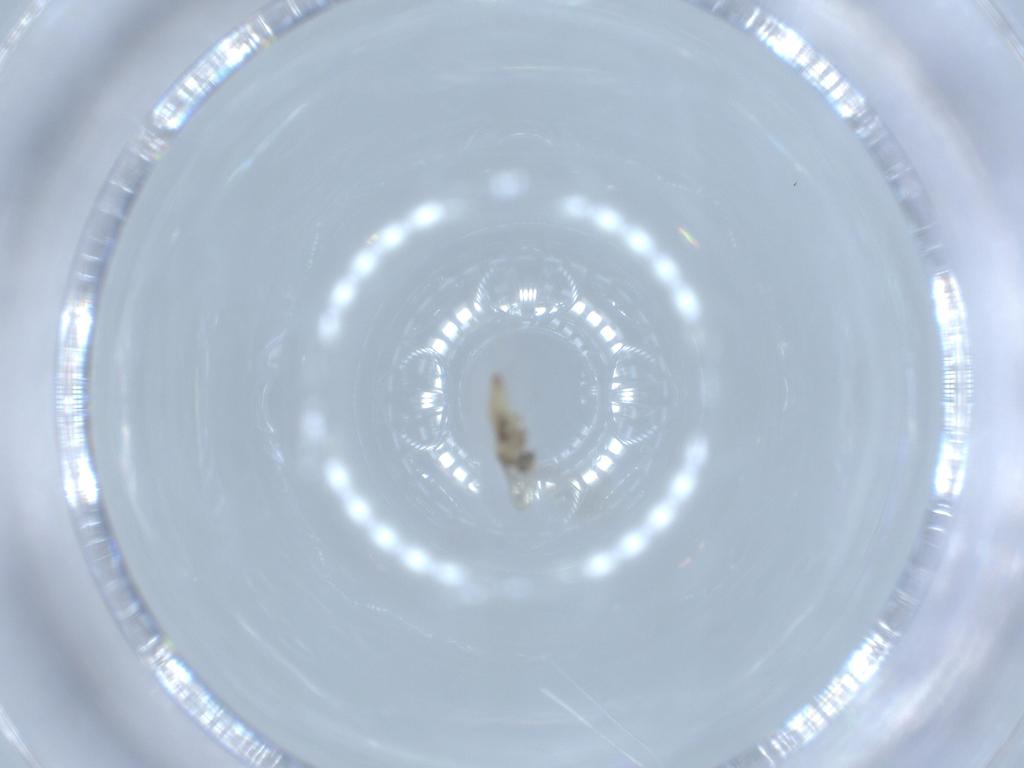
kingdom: Animalia
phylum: Arthropoda
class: Insecta
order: Diptera
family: Cecidomyiidae
